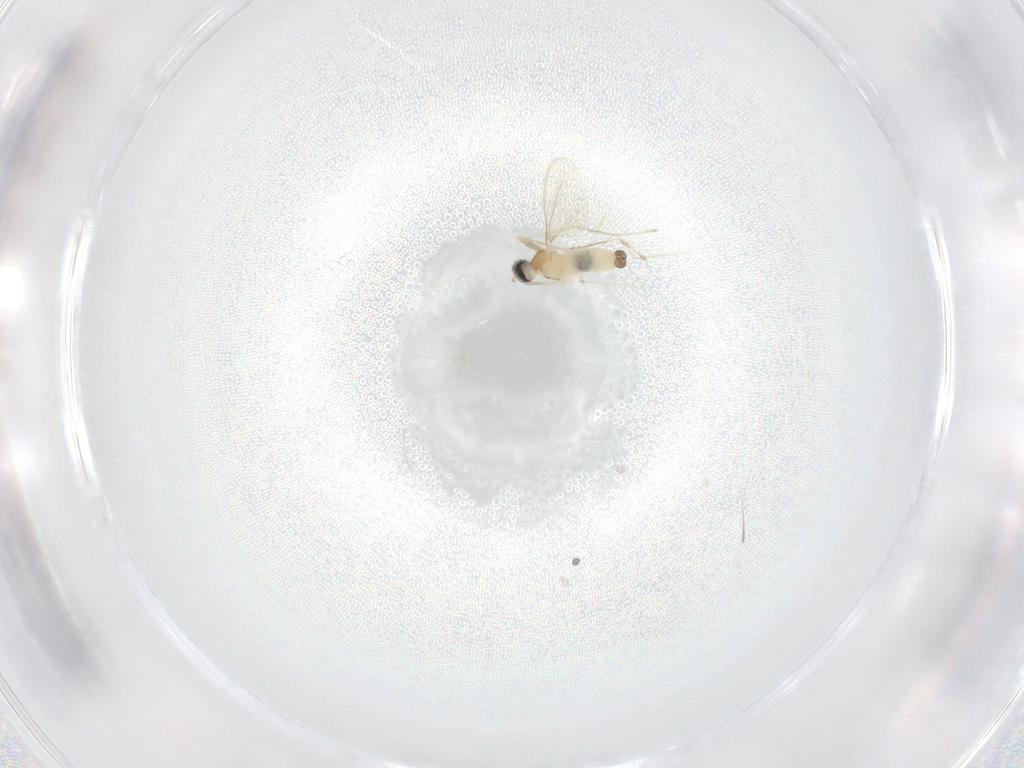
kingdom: Animalia
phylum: Arthropoda
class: Insecta
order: Diptera
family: Cecidomyiidae
